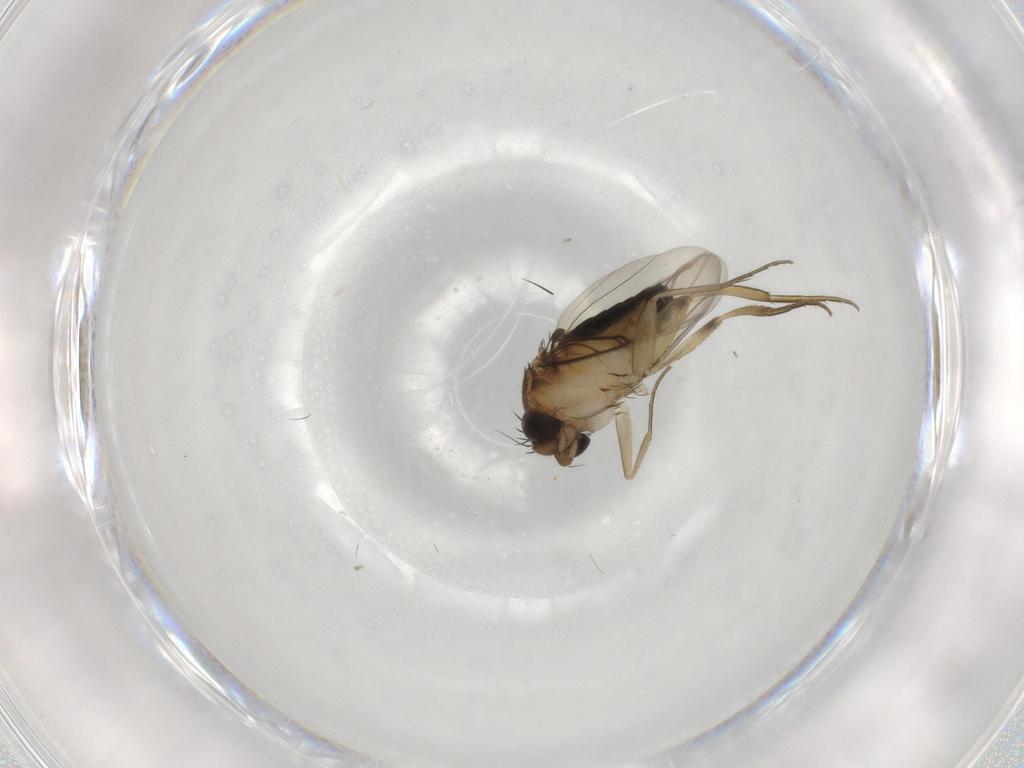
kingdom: Animalia
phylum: Arthropoda
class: Insecta
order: Diptera
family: Phoridae
